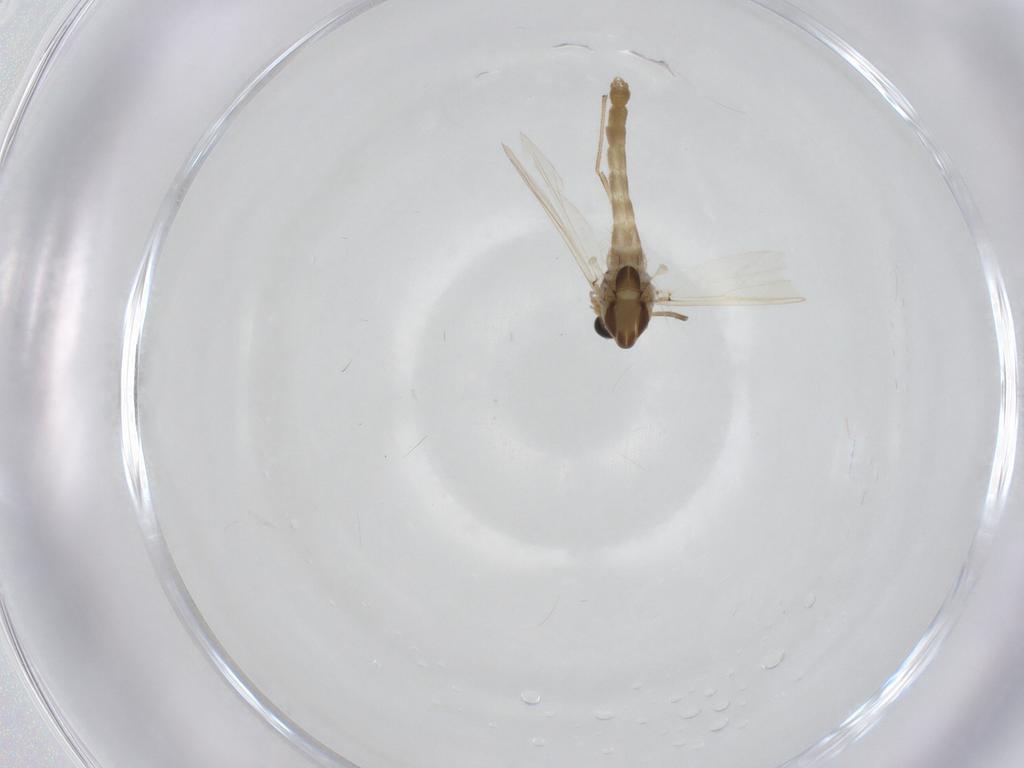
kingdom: Animalia
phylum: Arthropoda
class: Insecta
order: Diptera
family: Chironomidae
